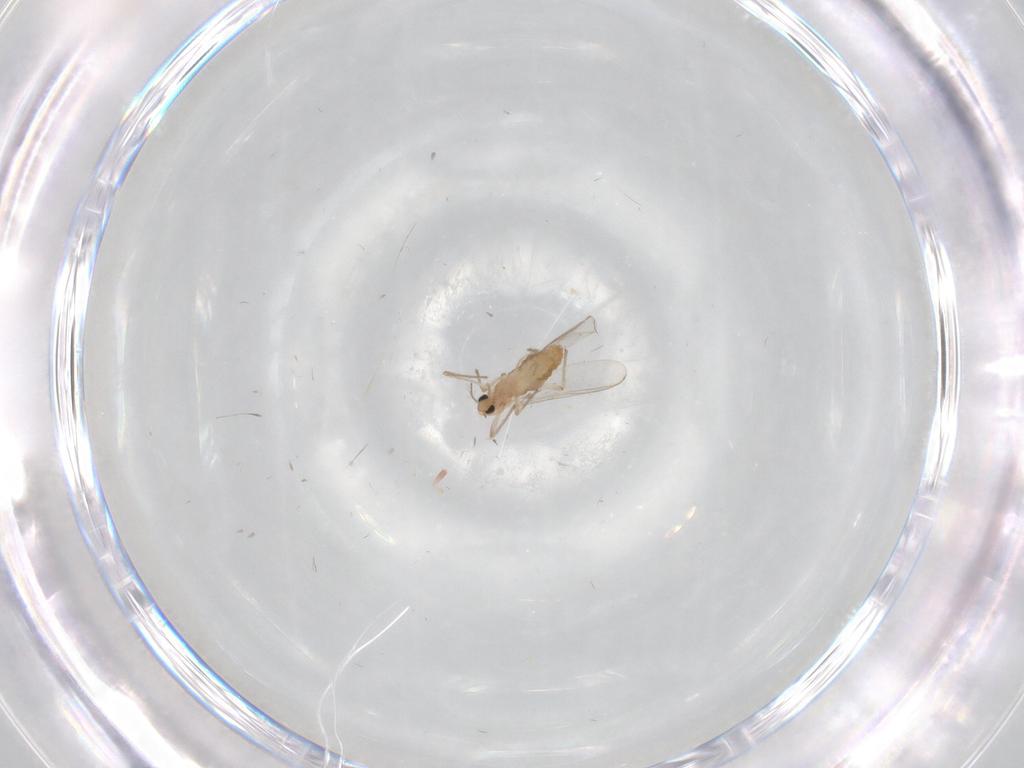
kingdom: Animalia
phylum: Arthropoda
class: Insecta
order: Diptera
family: Chironomidae
